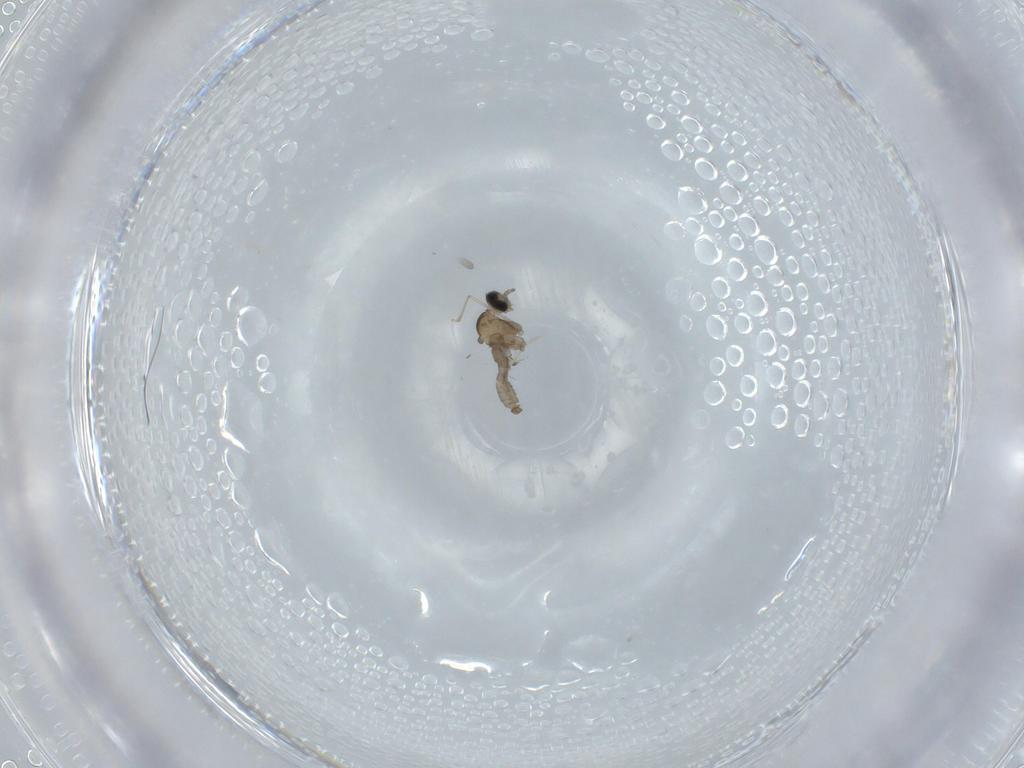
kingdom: Animalia
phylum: Arthropoda
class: Insecta
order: Diptera
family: Cecidomyiidae
